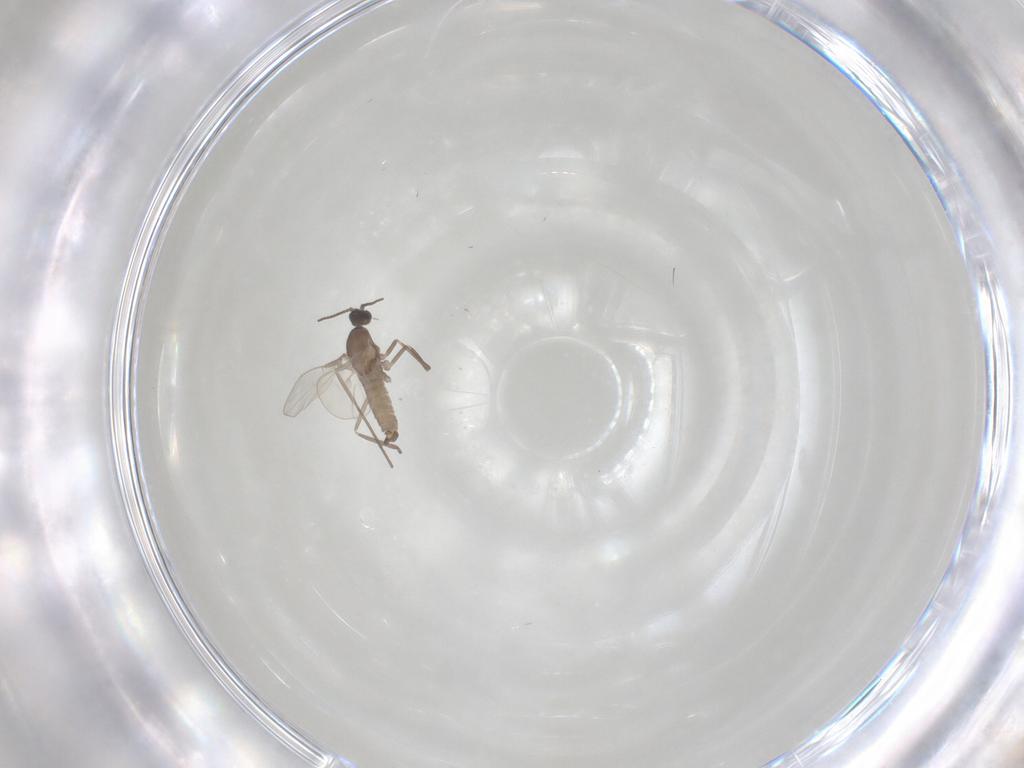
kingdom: Animalia
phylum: Arthropoda
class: Insecta
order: Diptera
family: Cecidomyiidae
